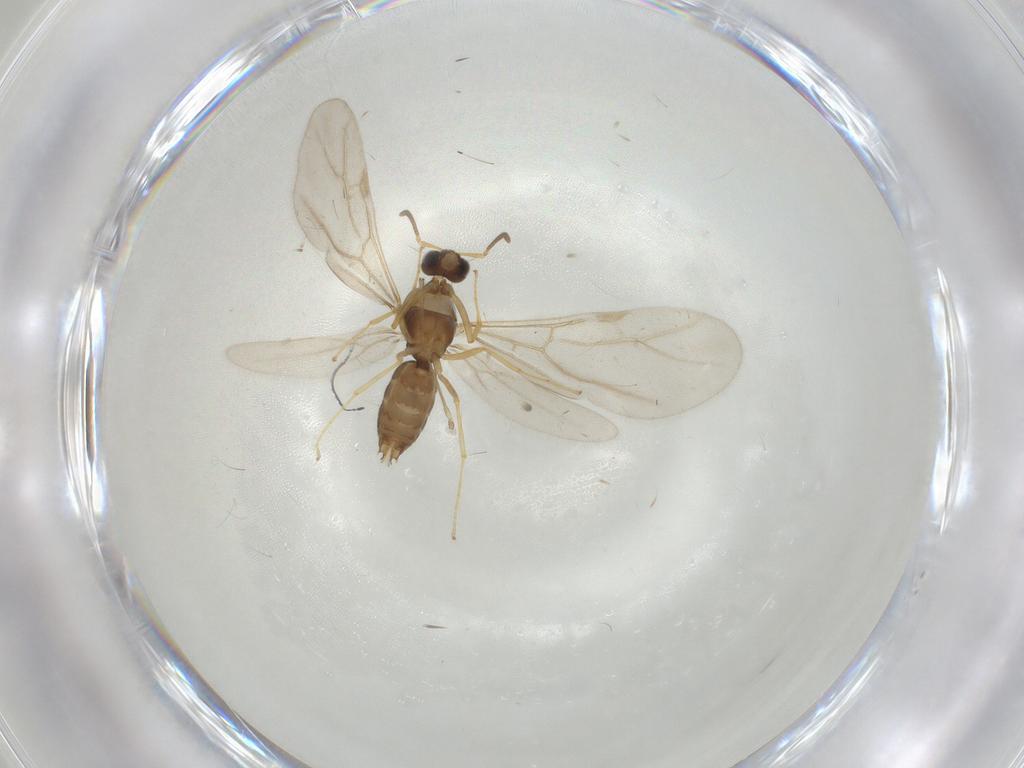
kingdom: Animalia
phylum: Arthropoda
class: Insecta
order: Hymenoptera
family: Formicidae
